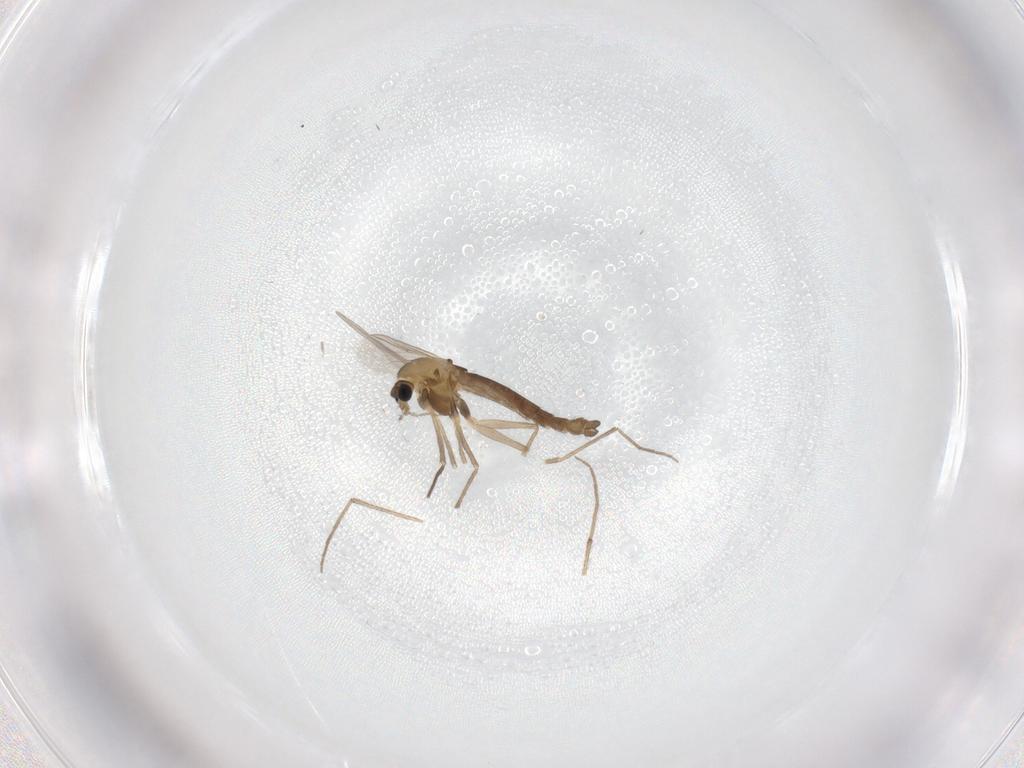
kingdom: Animalia
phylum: Arthropoda
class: Insecta
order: Diptera
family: Chironomidae
